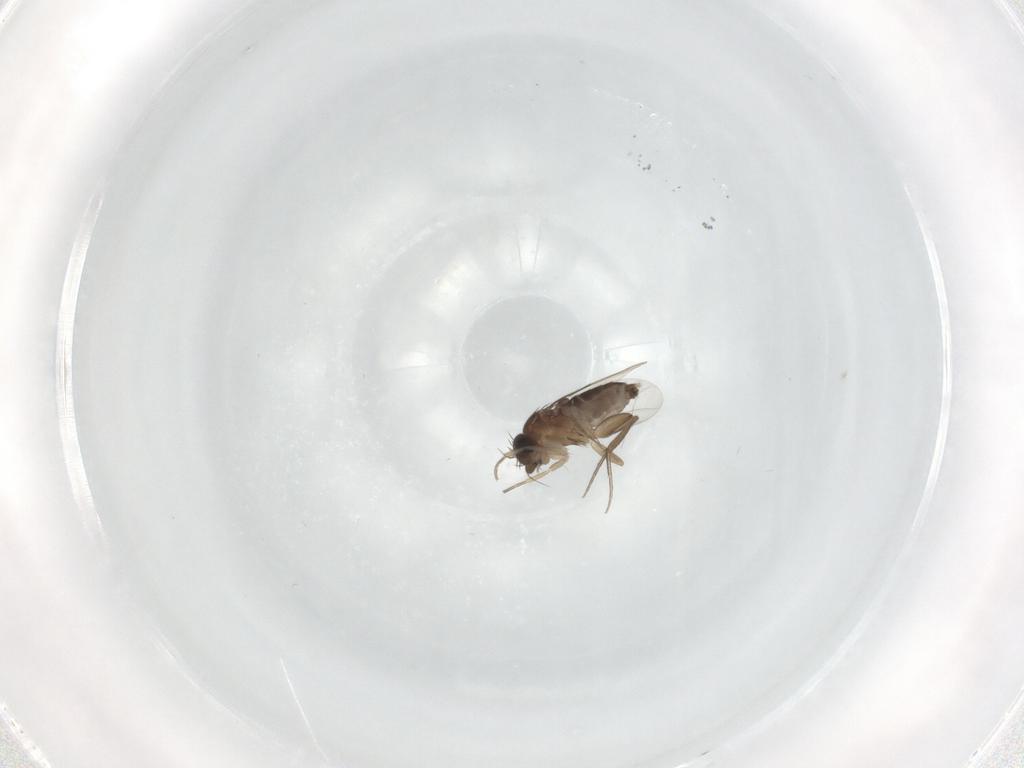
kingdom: Animalia
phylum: Arthropoda
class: Insecta
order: Diptera
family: Phoridae
